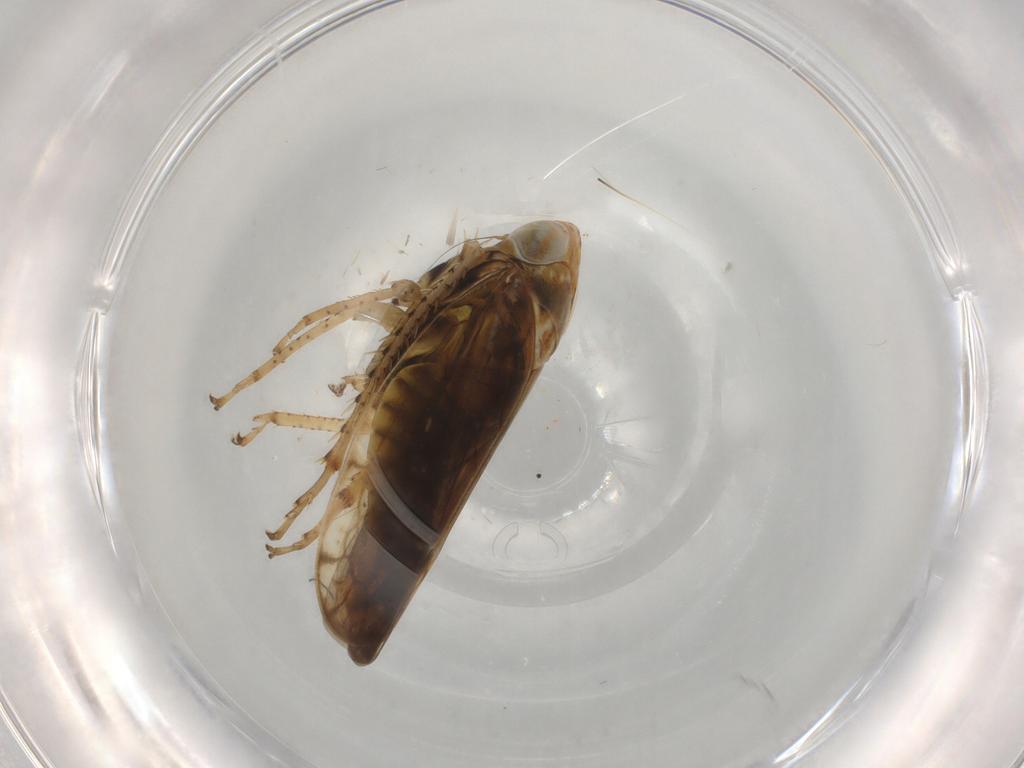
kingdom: Animalia
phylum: Arthropoda
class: Insecta
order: Hemiptera
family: Cicadellidae
